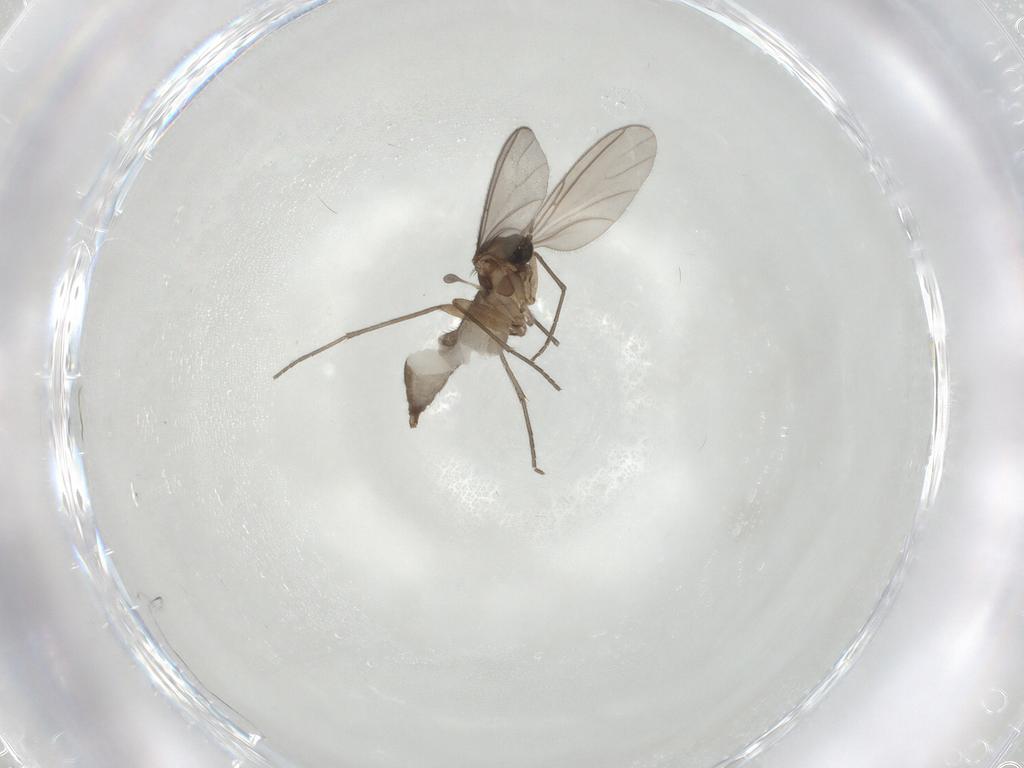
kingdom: Animalia
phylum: Arthropoda
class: Insecta
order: Diptera
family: Sciaridae
